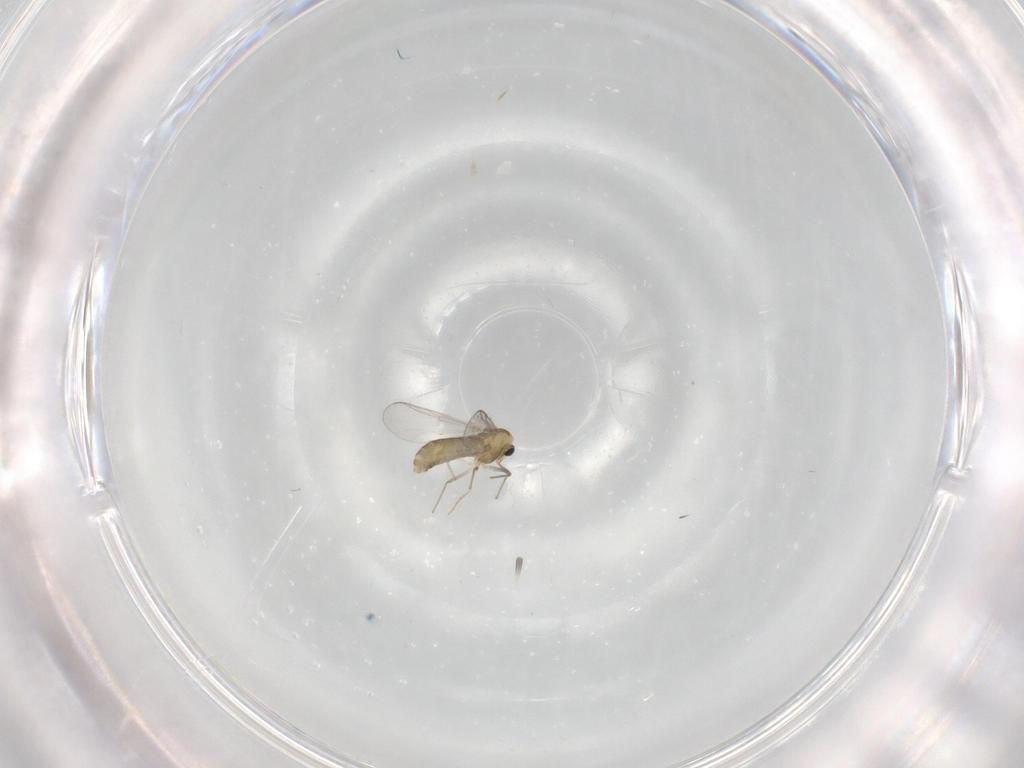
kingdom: Animalia
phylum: Arthropoda
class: Insecta
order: Diptera
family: Chironomidae
